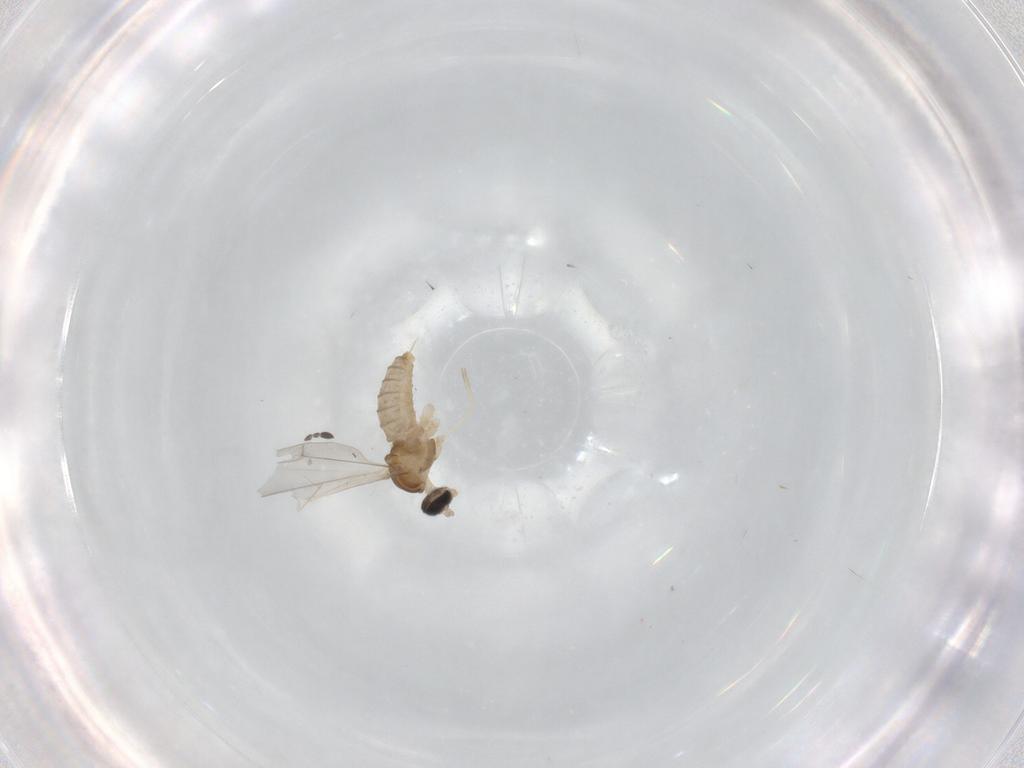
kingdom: Animalia
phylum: Arthropoda
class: Insecta
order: Diptera
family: Cecidomyiidae
